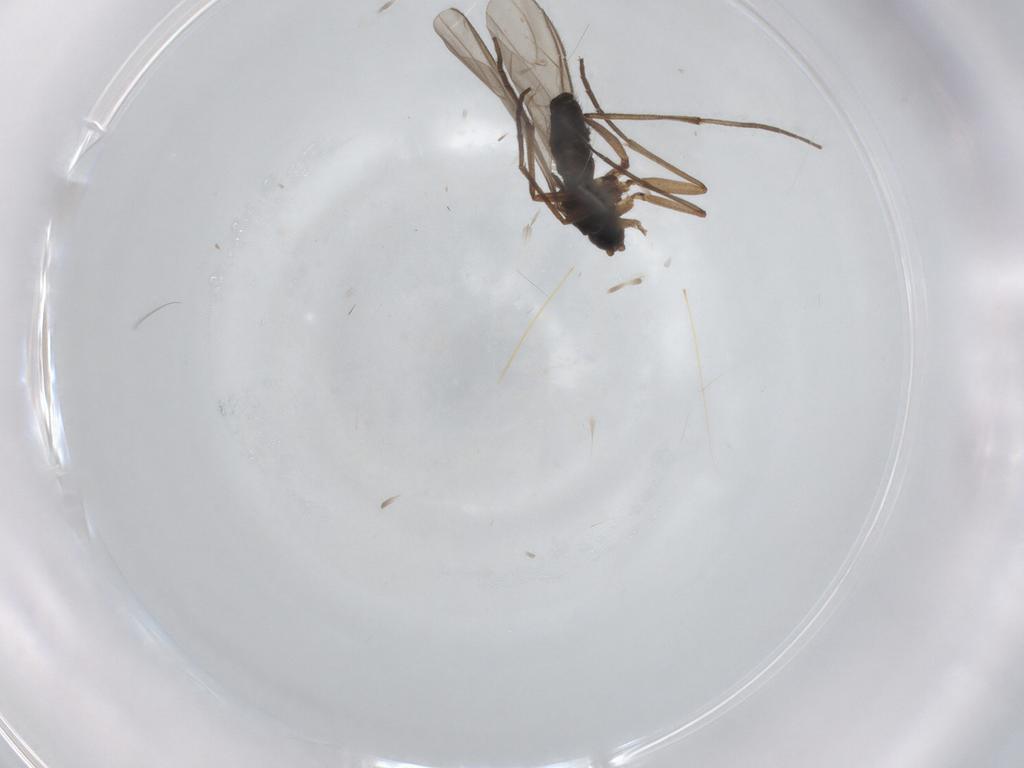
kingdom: Animalia
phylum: Arthropoda
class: Insecta
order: Diptera
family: Sciaridae
